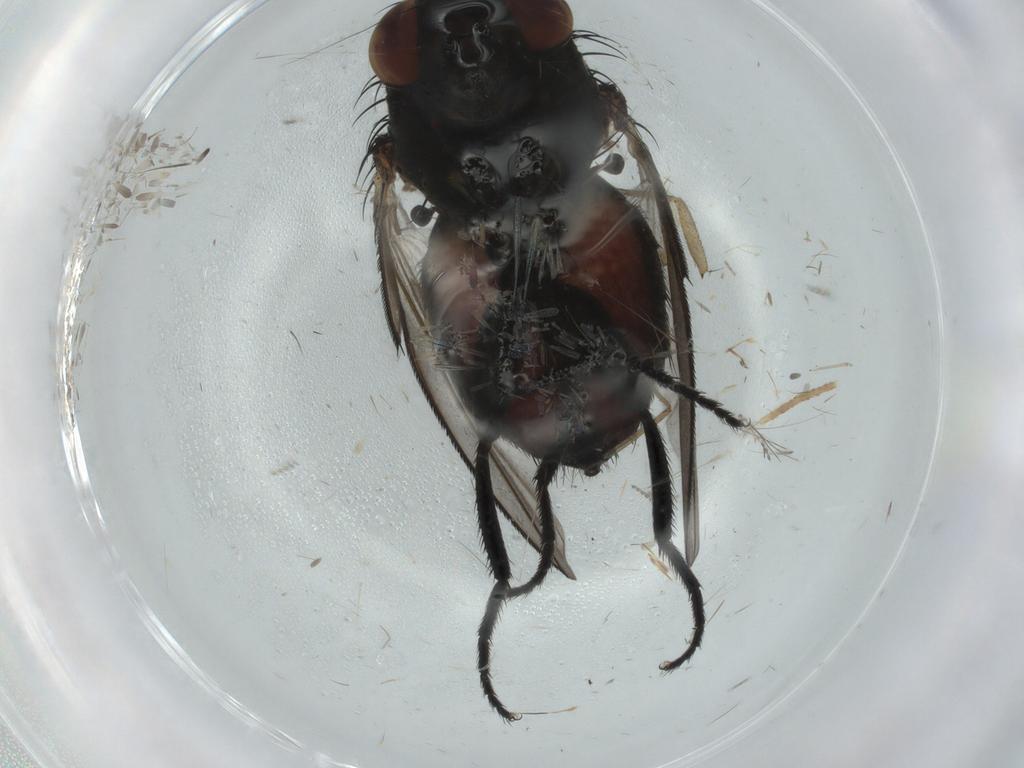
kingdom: Animalia
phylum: Arthropoda
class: Insecta
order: Diptera
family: Milichiidae
